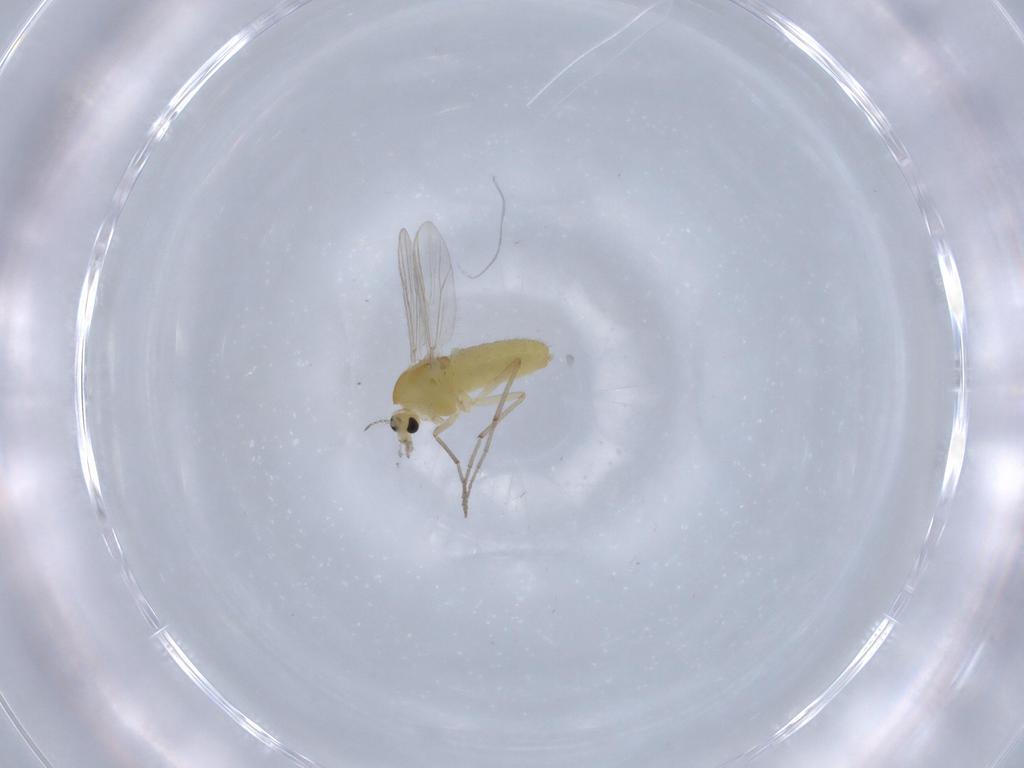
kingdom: Animalia
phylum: Arthropoda
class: Insecta
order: Diptera
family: Chironomidae
